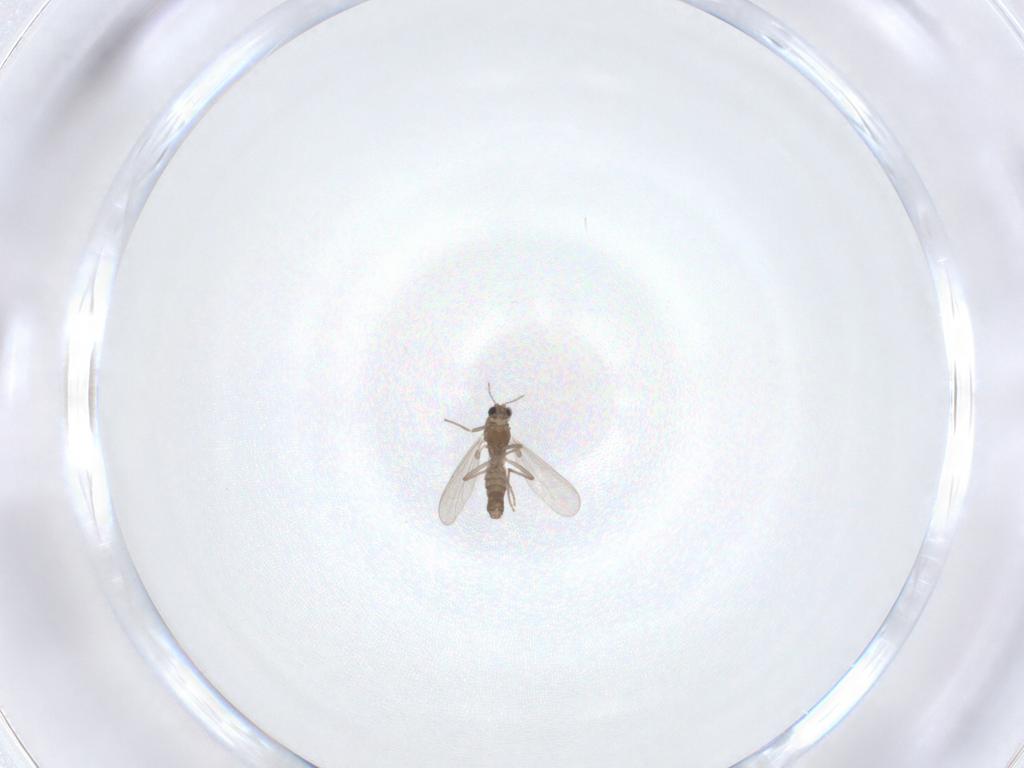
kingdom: Animalia
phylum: Arthropoda
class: Insecta
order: Diptera
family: Chironomidae
